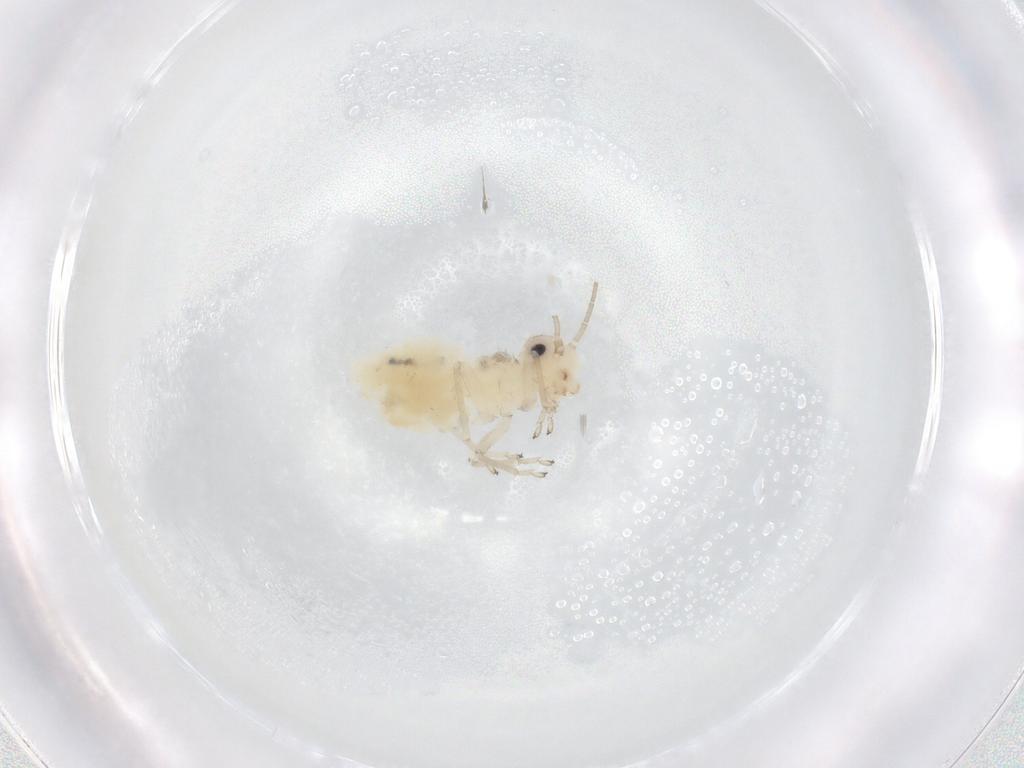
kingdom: Animalia
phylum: Arthropoda
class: Insecta
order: Psocodea
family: Caeciliusidae
